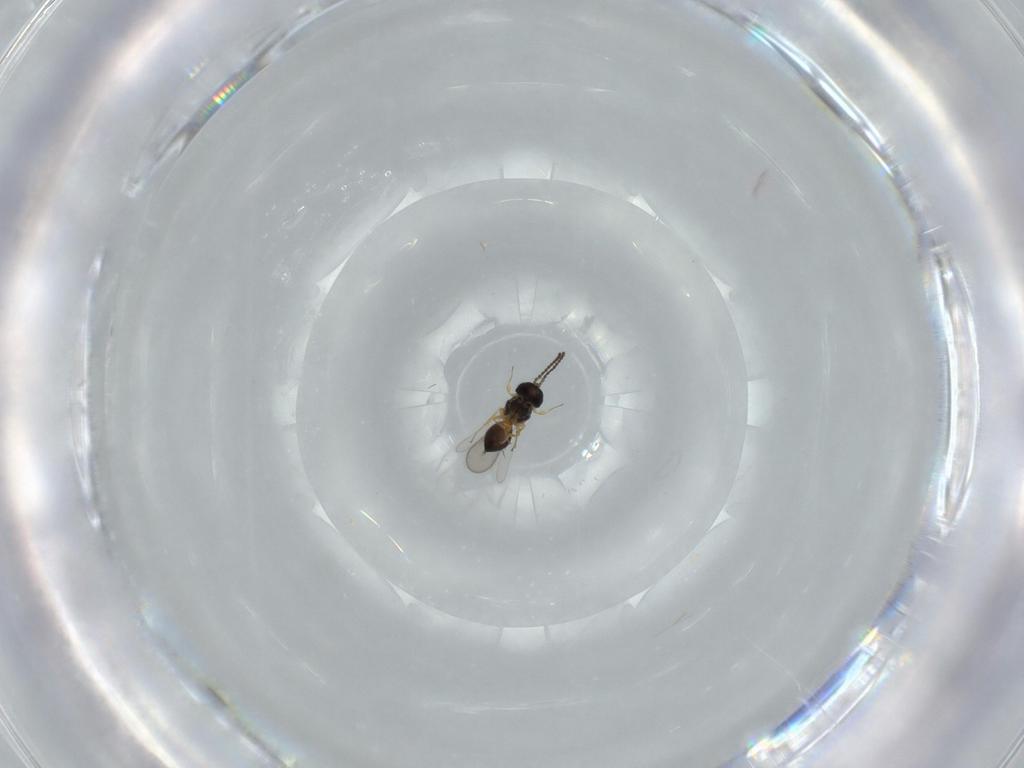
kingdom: Animalia
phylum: Arthropoda
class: Insecta
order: Hymenoptera
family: Scelionidae
